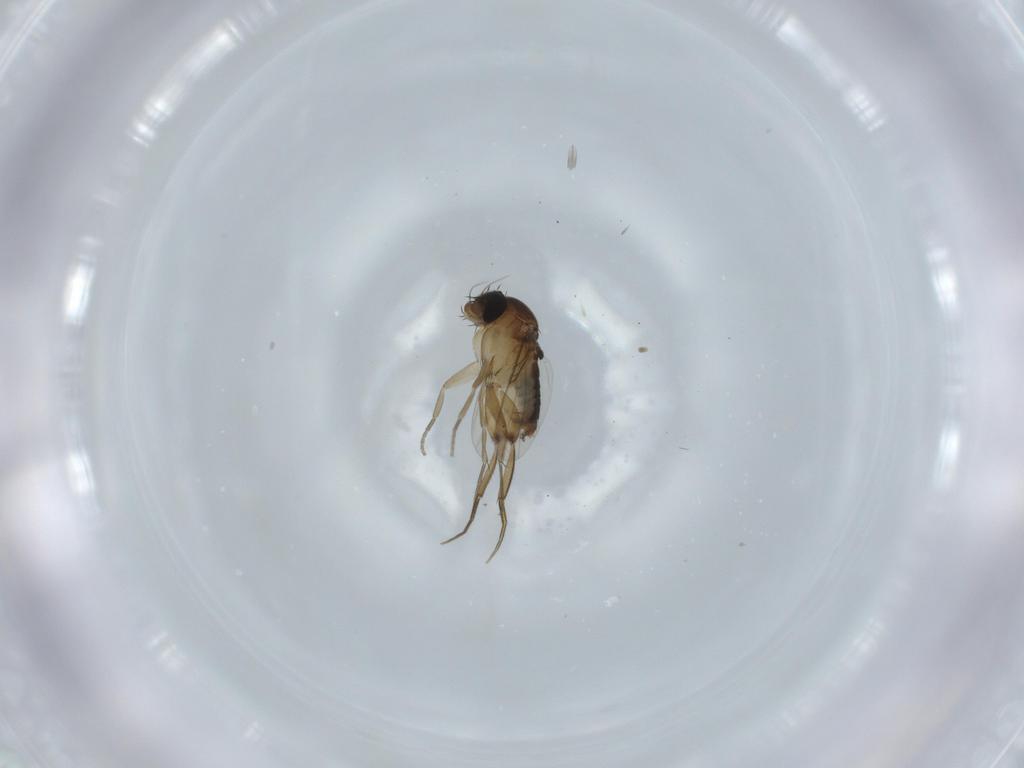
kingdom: Animalia
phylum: Arthropoda
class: Insecta
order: Diptera
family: Phoridae
